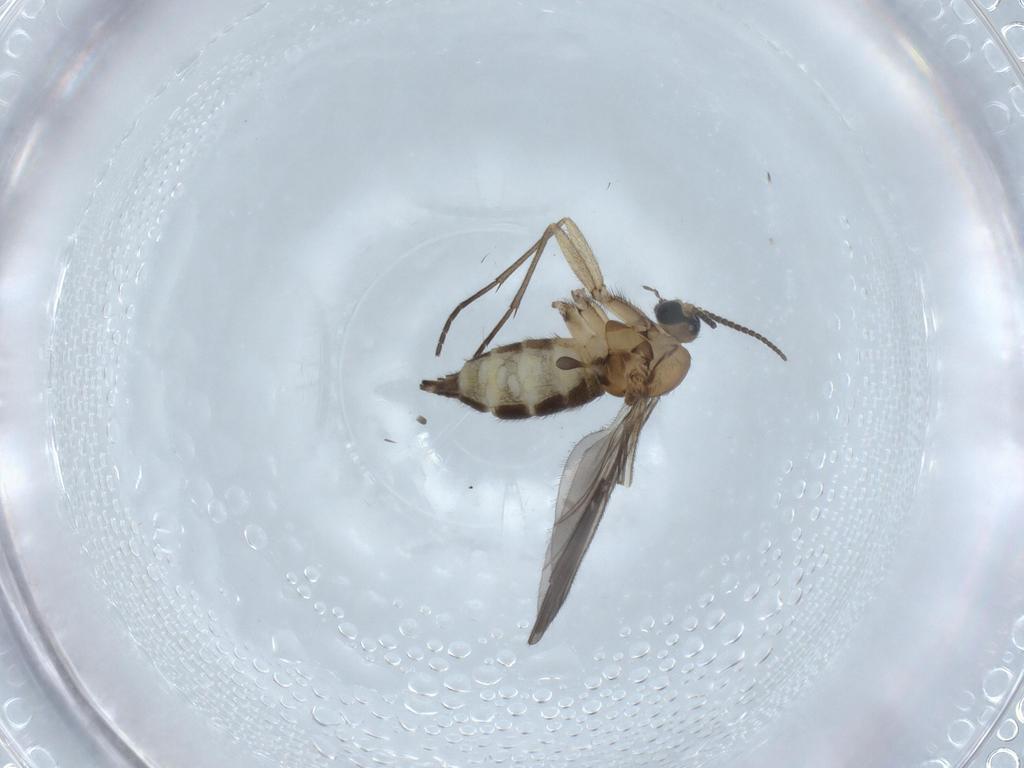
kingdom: Animalia
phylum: Arthropoda
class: Insecta
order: Diptera
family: Sciaridae
